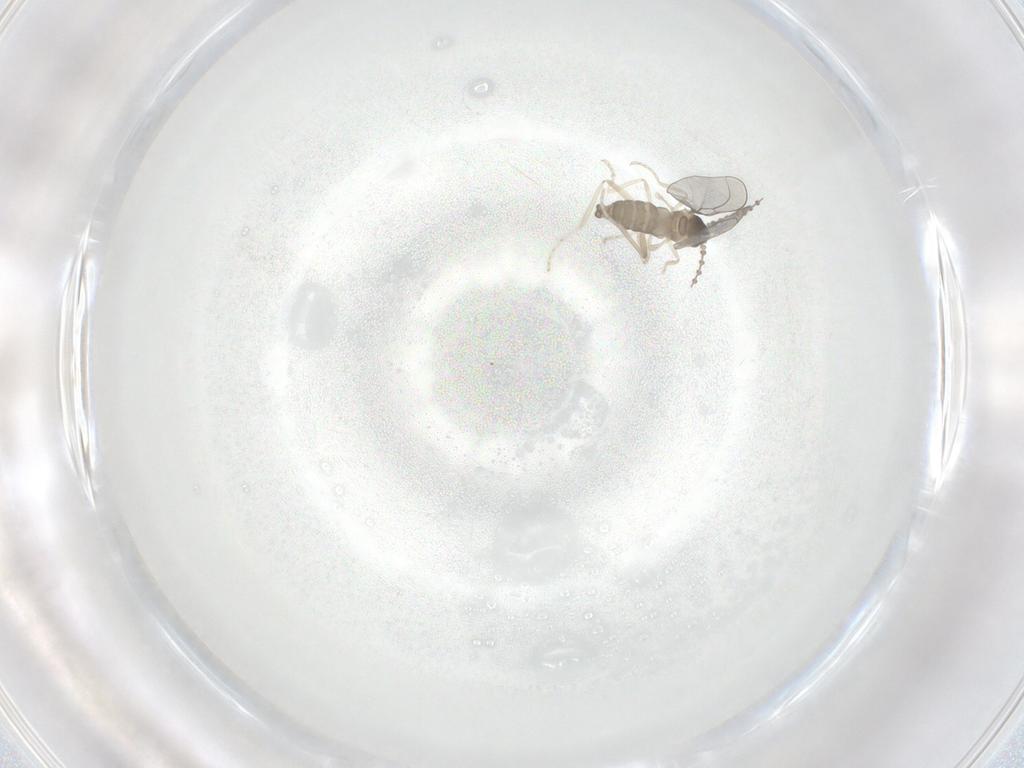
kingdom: Animalia
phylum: Arthropoda
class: Insecta
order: Diptera
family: Cecidomyiidae
